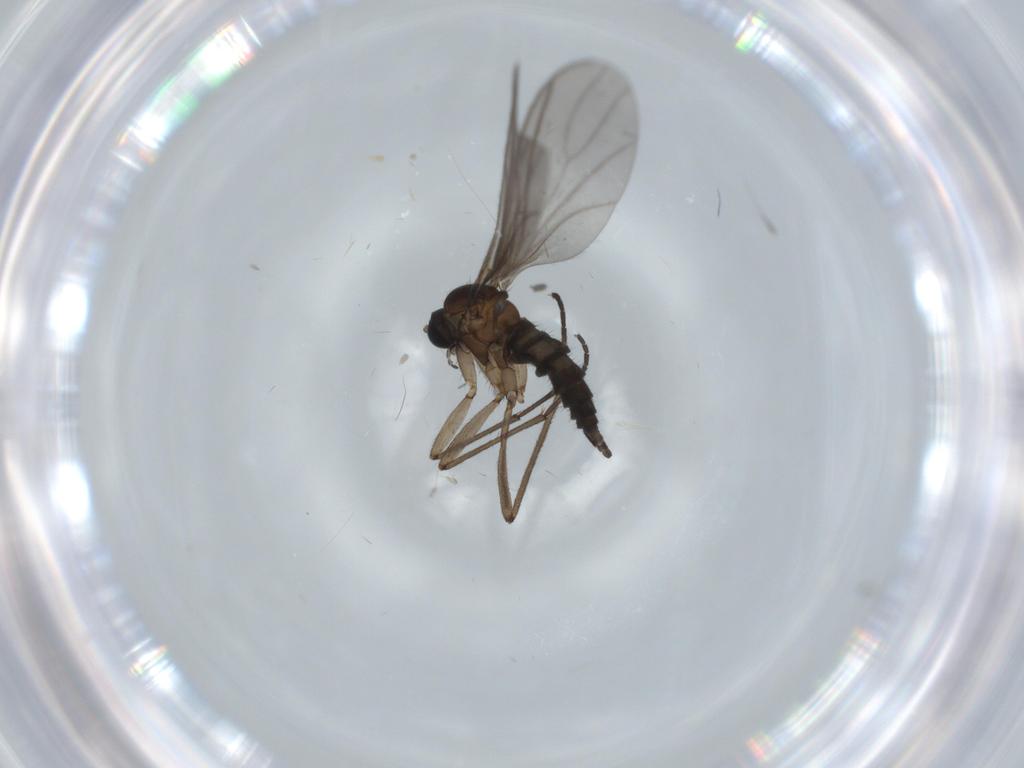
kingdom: Animalia
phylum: Arthropoda
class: Insecta
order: Diptera
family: Sciaridae
